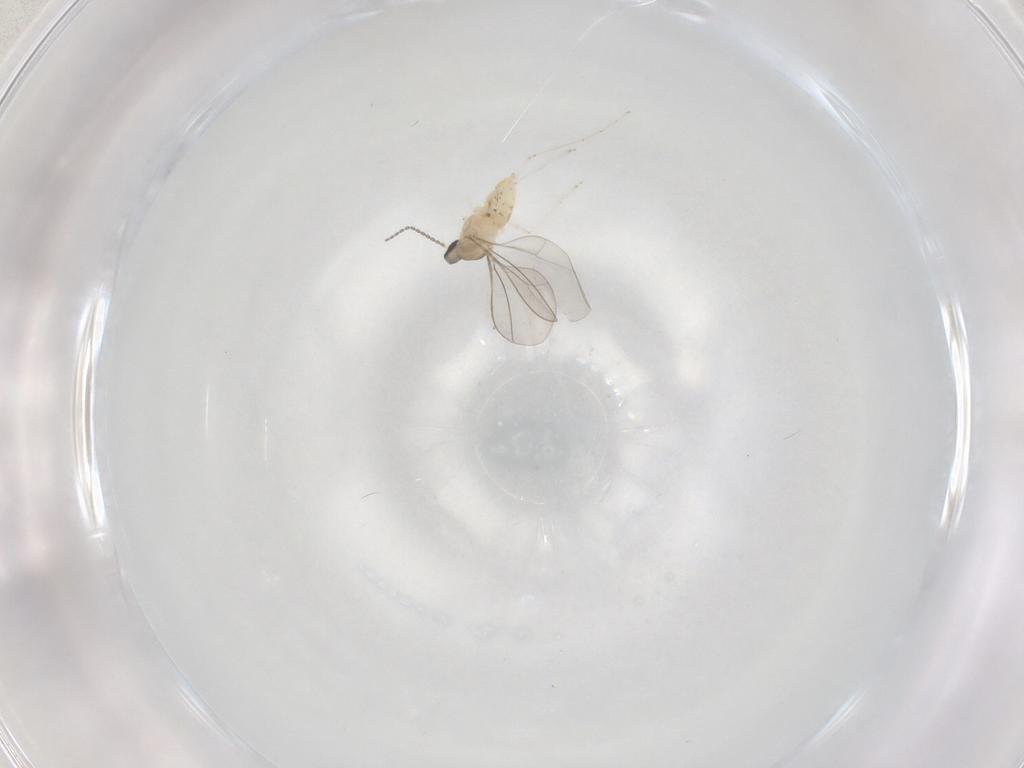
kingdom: Animalia
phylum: Arthropoda
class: Insecta
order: Diptera
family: Cecidomyiidae
